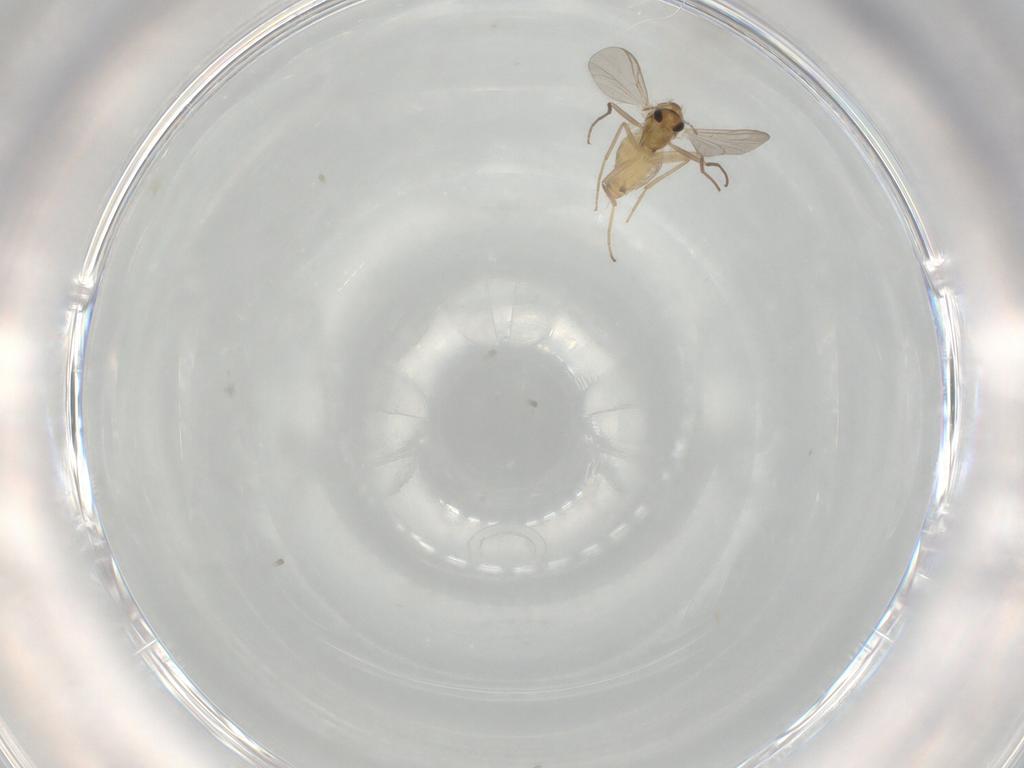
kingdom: Animalia
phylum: Arthropoda
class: Insecta
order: Diptera
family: Chironomidae
